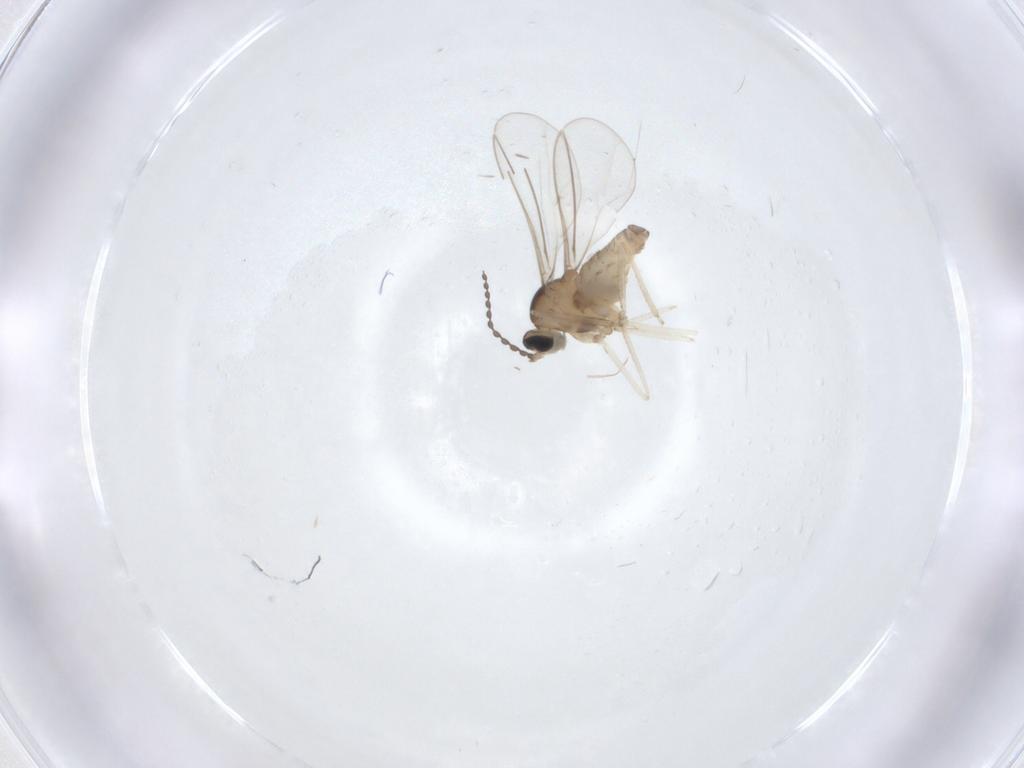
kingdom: Animalia
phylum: Arthropoda
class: Insecta
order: Diptera
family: Cecidomyiidae
